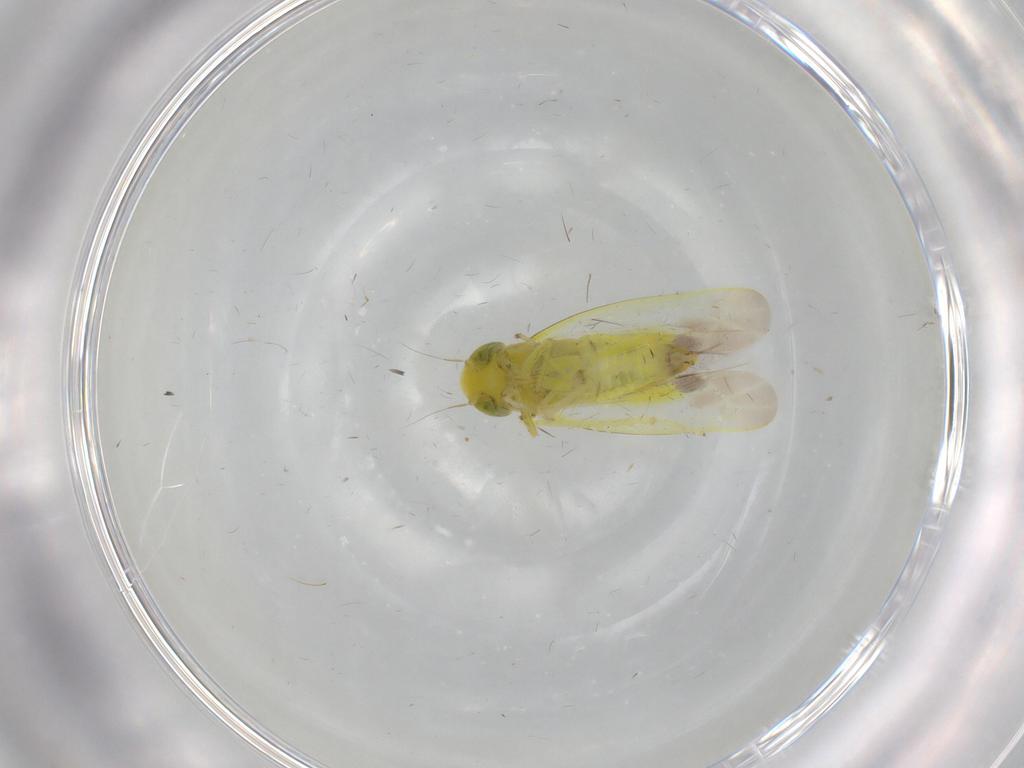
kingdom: Animalia
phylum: Arthropoda
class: Insecta
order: Hemiptera
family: Cicadellidae
